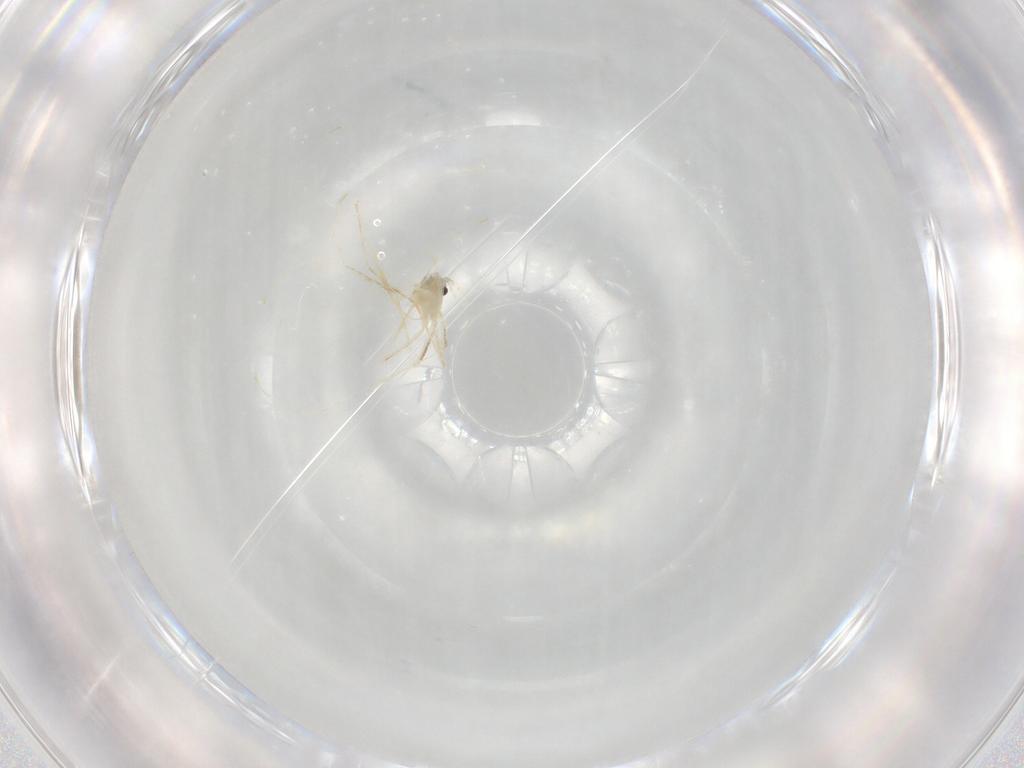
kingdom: Animalia
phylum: Arthropoda
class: Insecta
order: Diptera
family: Cecidomyiidae
